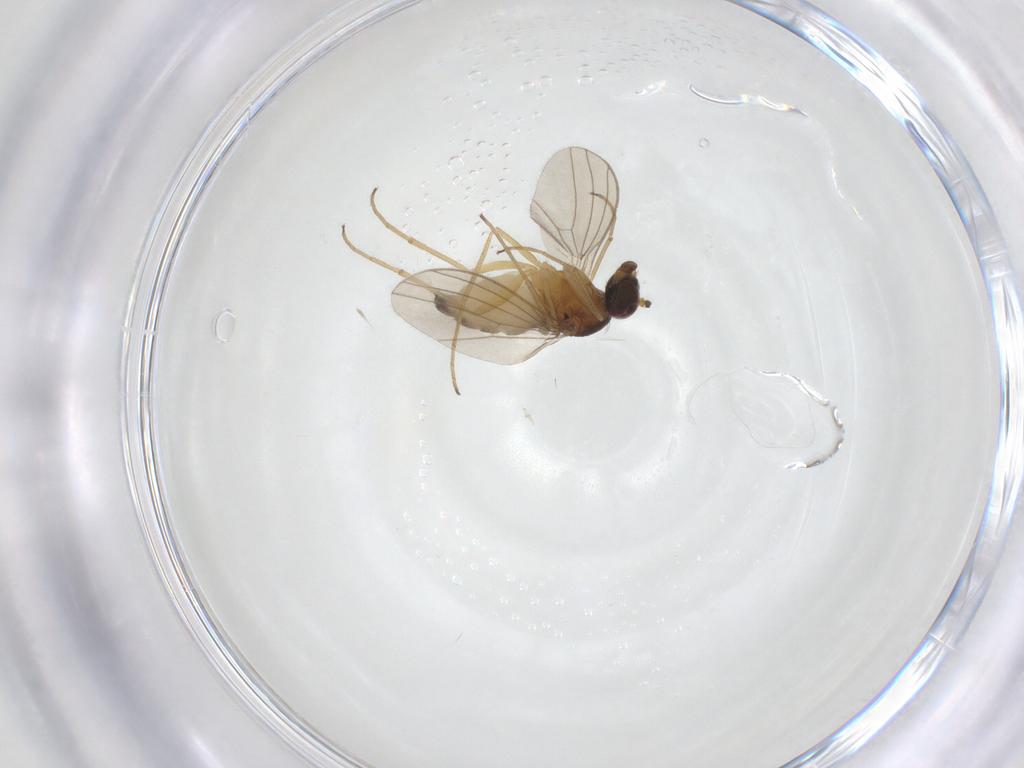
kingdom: Animalia
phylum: Arthropoda
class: Insecta
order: Diptera
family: Dolichopodidae
